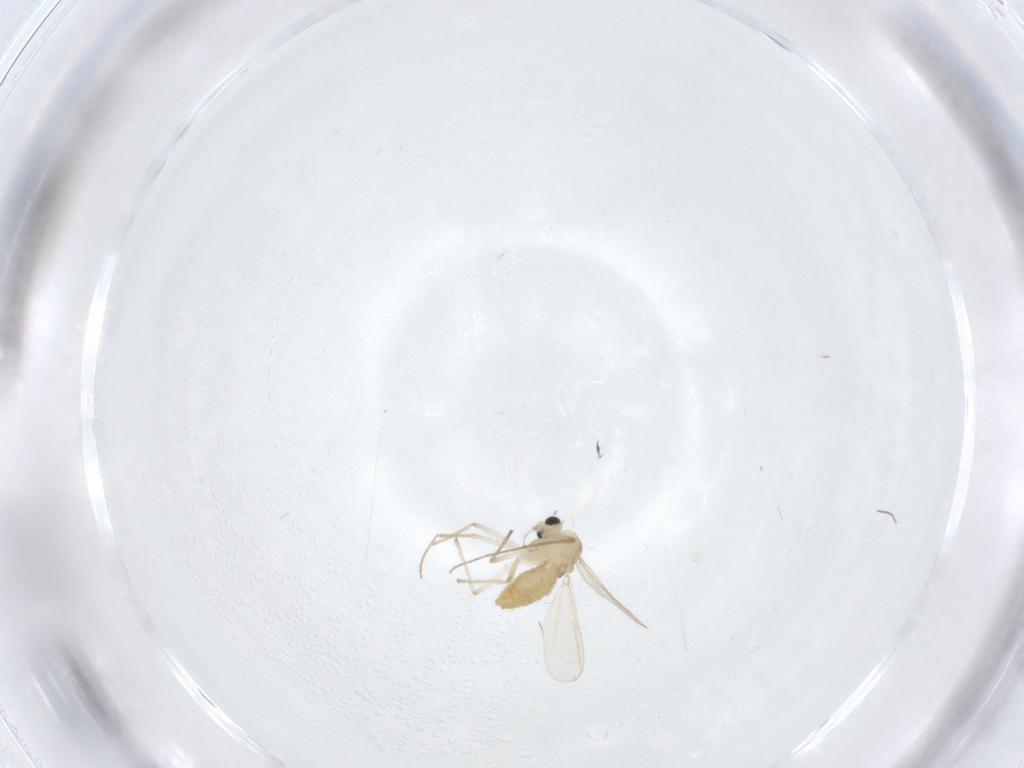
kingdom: Animalia
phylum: Arthropoda
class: Insecta
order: Diptera
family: Chironomidae
